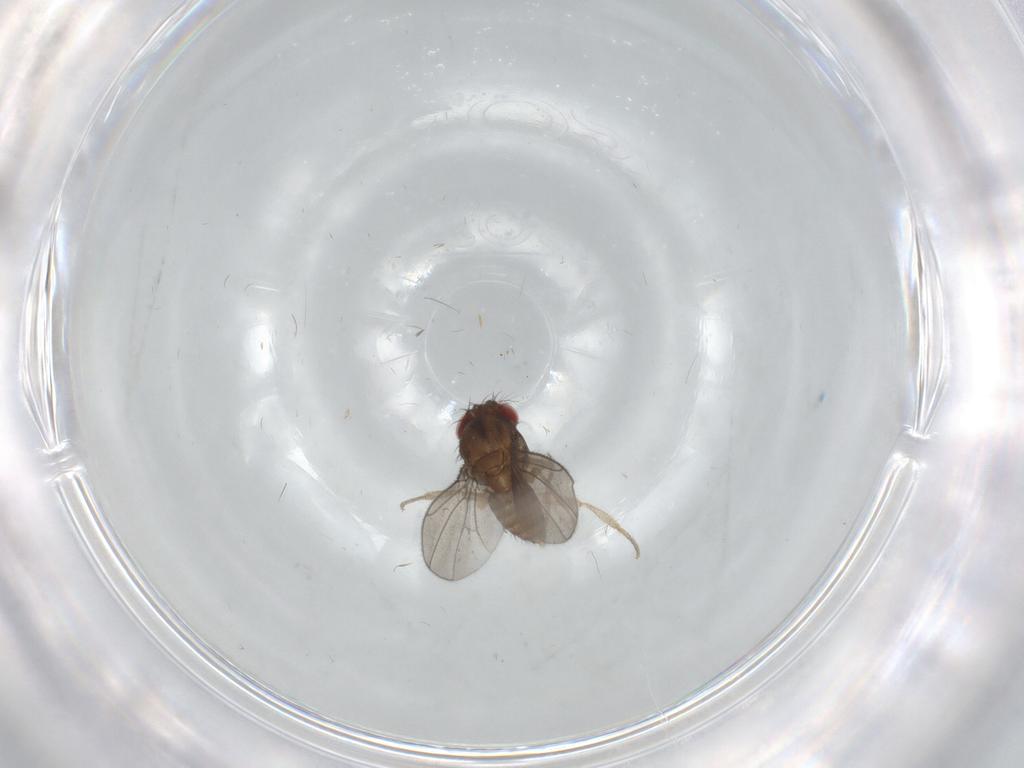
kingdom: Animalia
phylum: Arthropoda
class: Insecta
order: Diptera
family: Drosophilidae
